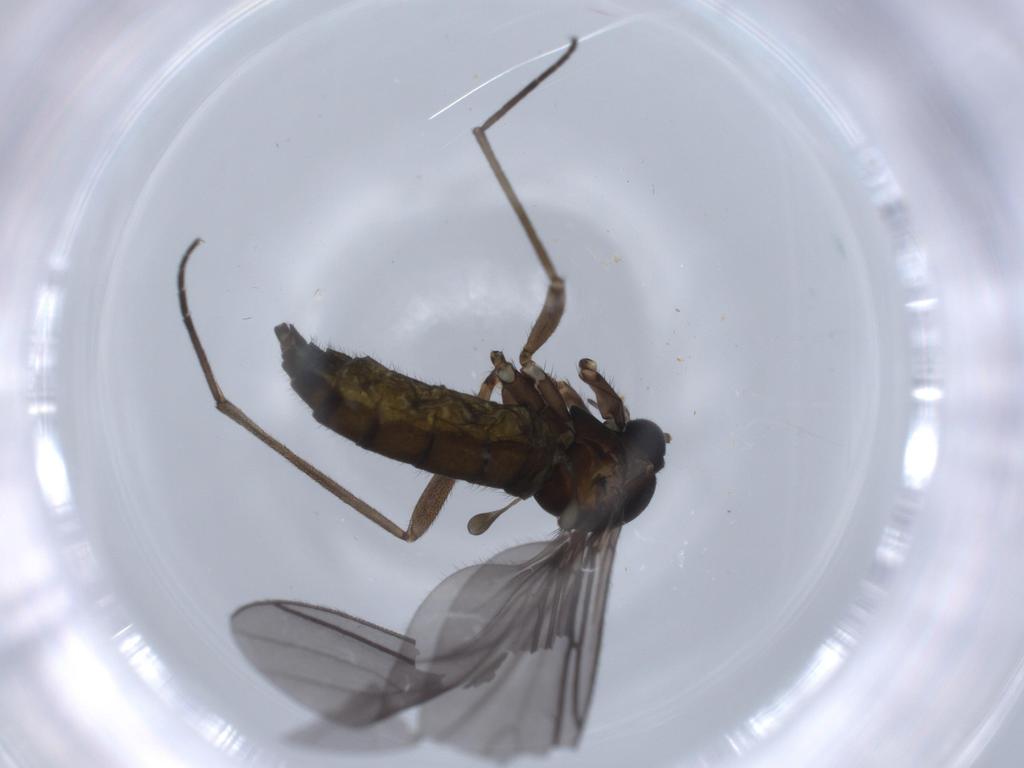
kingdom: Animalia
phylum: Arthropoda
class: Insecta
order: Diptera
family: Sciaridae
